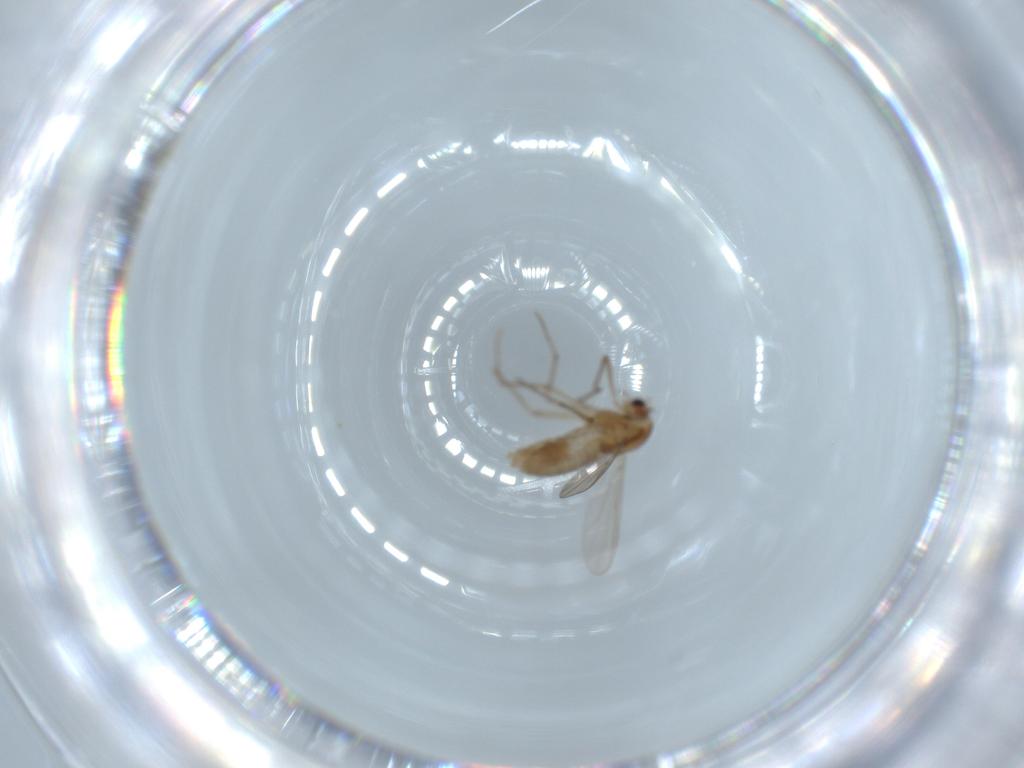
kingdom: Animalia
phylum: Arthropoda
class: Insecta
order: Diptera
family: Chironomidae
